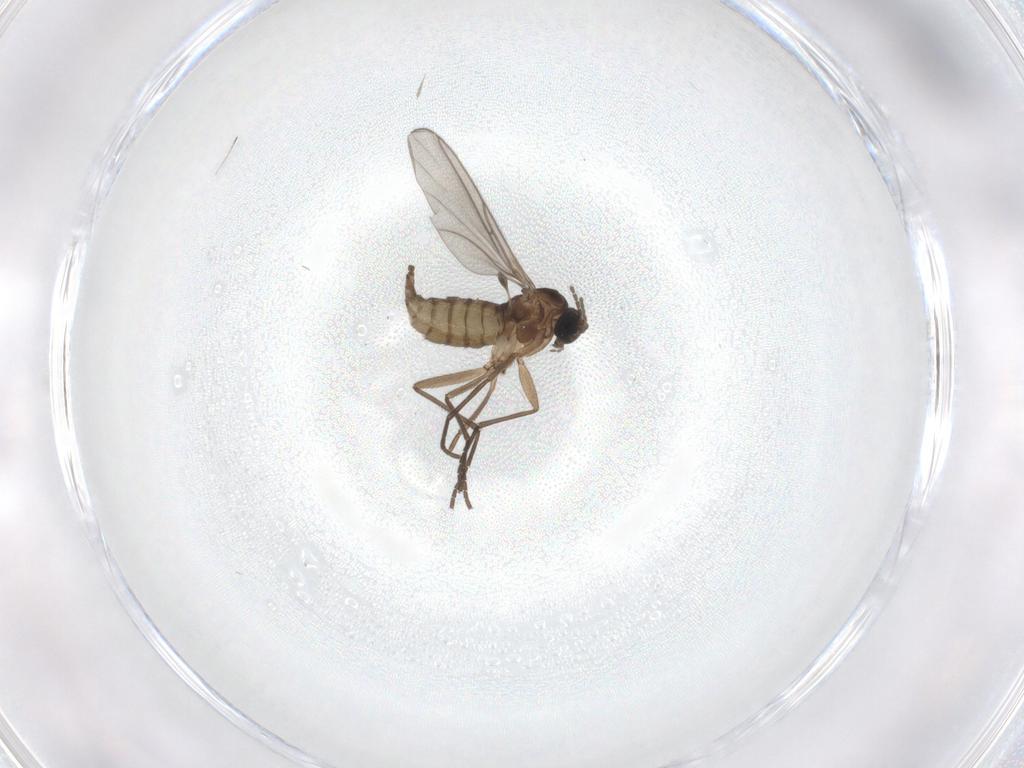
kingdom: Animalia
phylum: Arthropoda
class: Insecta
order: Diptera
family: Sciaridae
